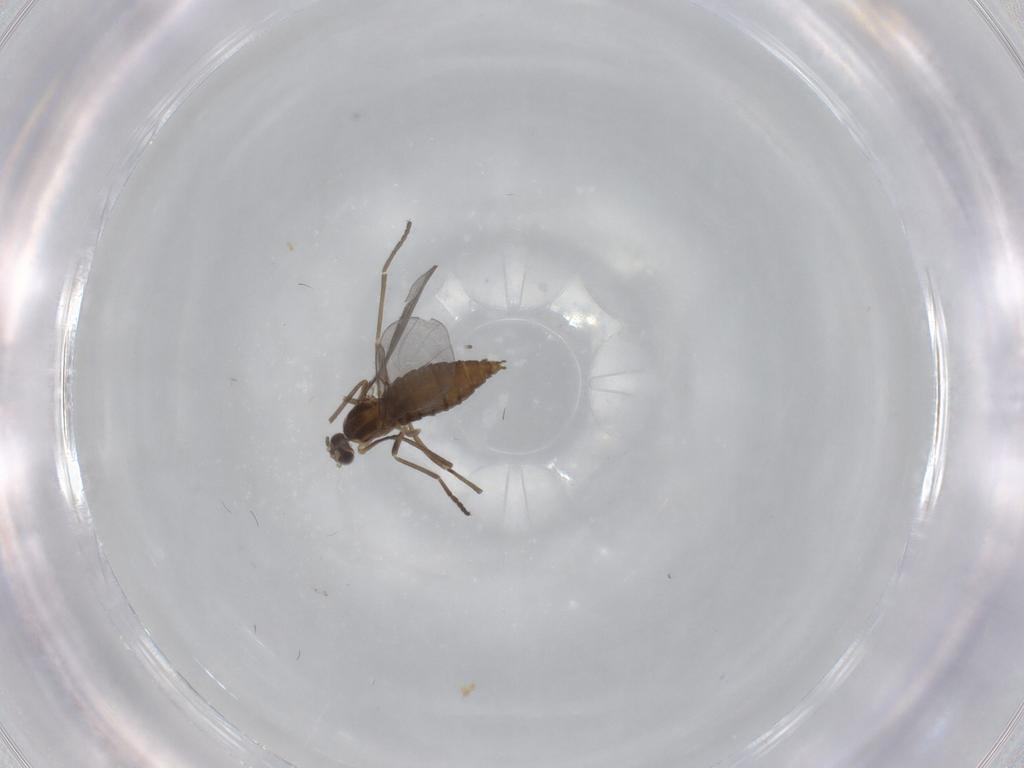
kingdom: Animalia
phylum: Arthropoda
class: Insecta
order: Diptera
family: Cecidomyiidae
